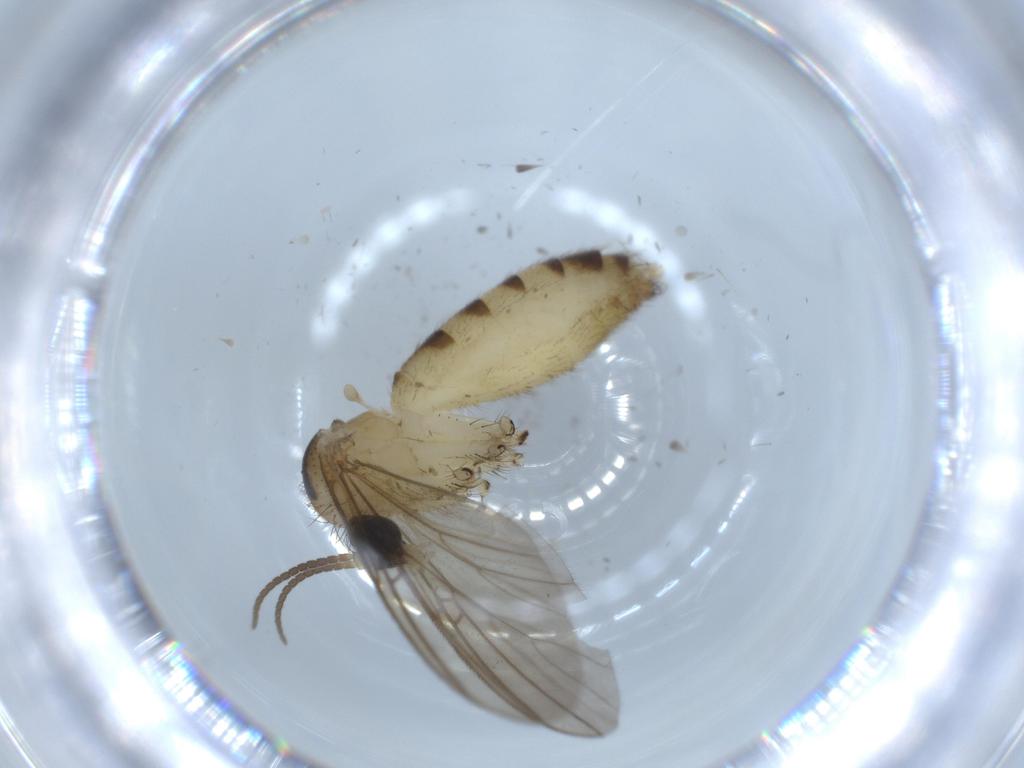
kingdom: Animalia
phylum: Arthropoda
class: Insecta
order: Diptera
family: Mycetophilidae
